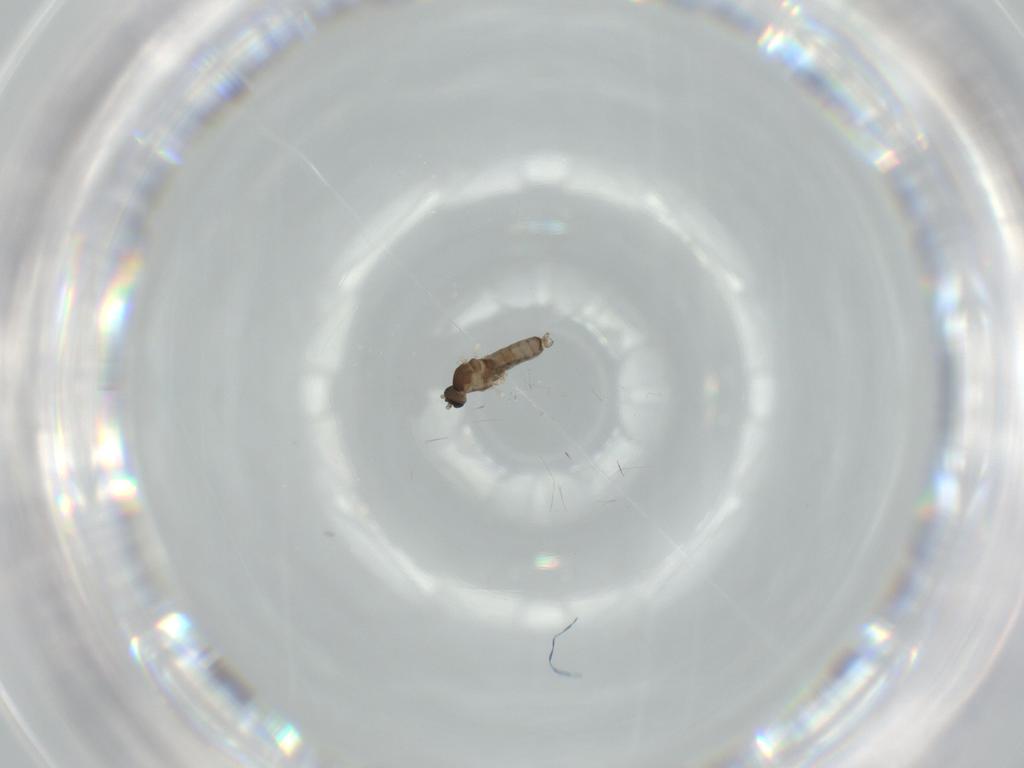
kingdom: Animalia
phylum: Arthropoda
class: Insecta
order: Diptera
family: Cecidomyiidae
